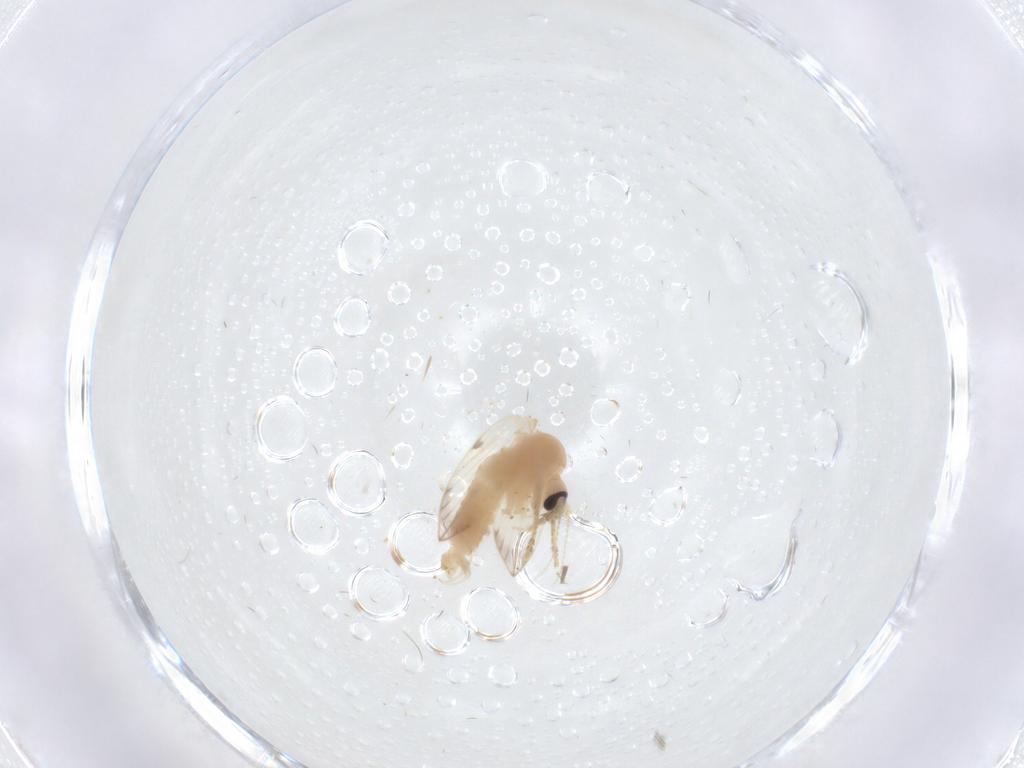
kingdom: Animalia
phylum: Arthropoda
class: Insecta
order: Diptera
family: Psychodidae
